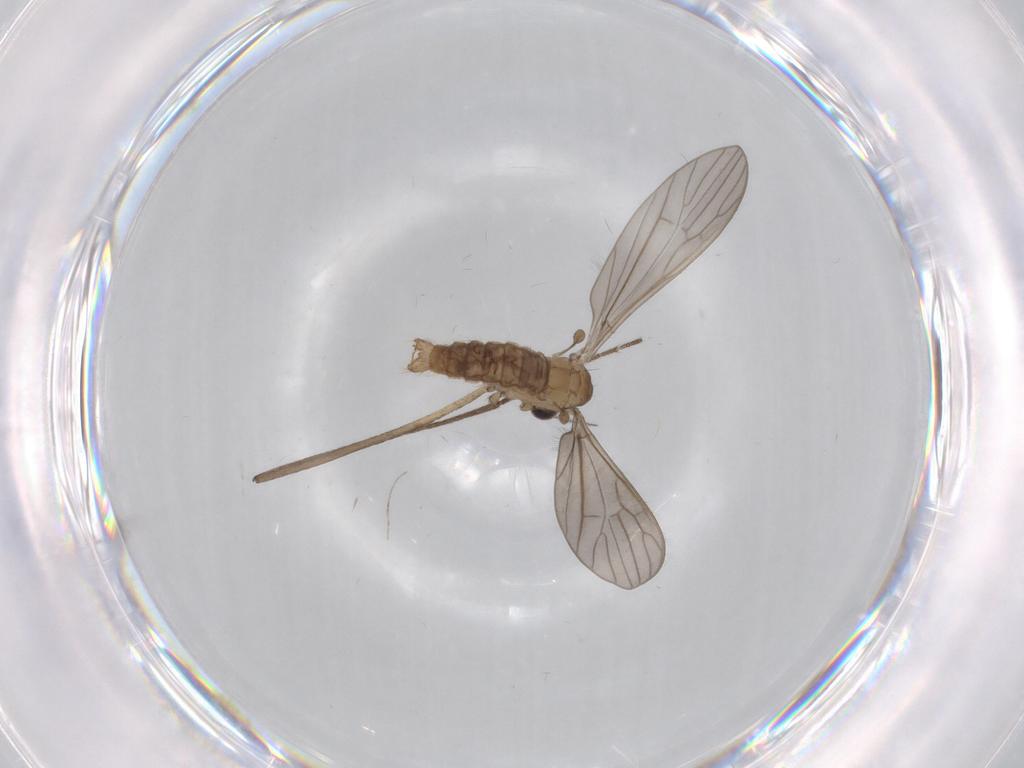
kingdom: Animalia
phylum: Arthropoda
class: Insecta
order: Diptera
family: Limoniidae
